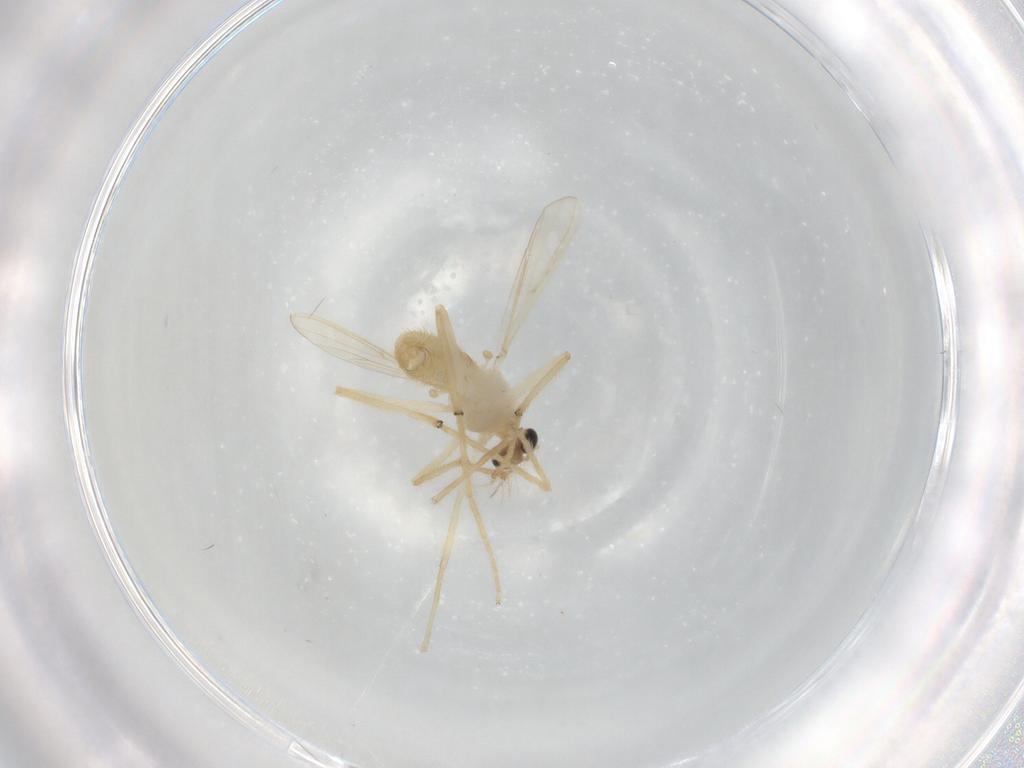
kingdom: Animalia
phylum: Arthropoda
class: Insecta
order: Diptera
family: Chironomidae
